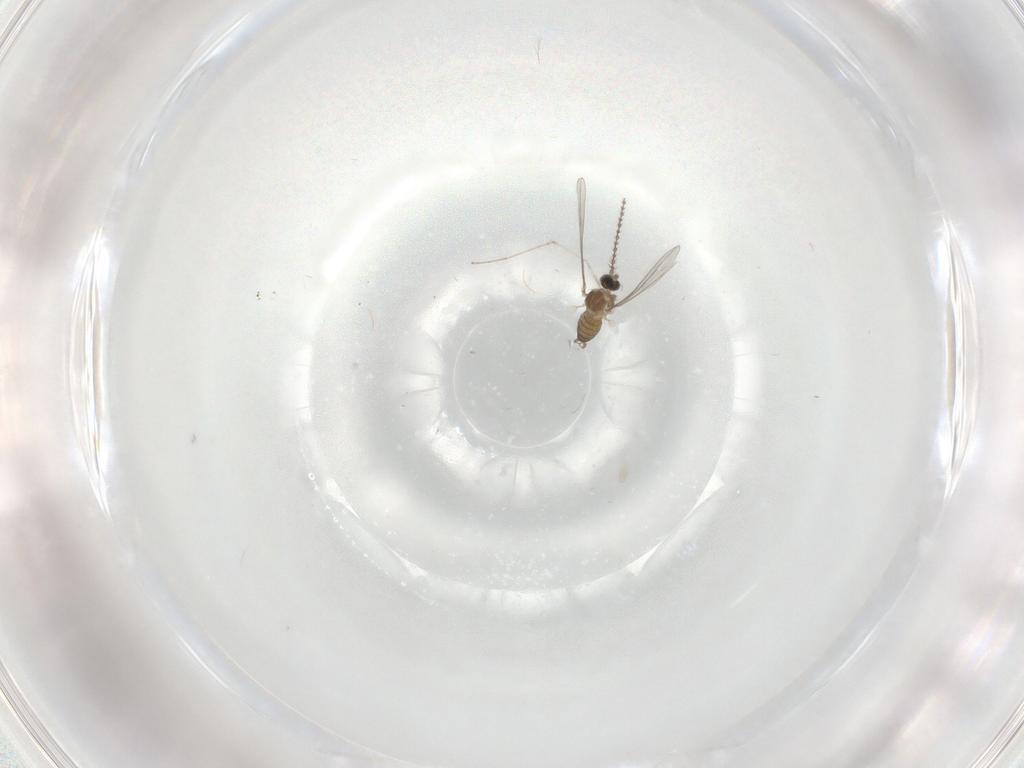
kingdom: Animalia
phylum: Arthropoda
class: Insecta
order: Diptera
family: Cecidomyiidae
